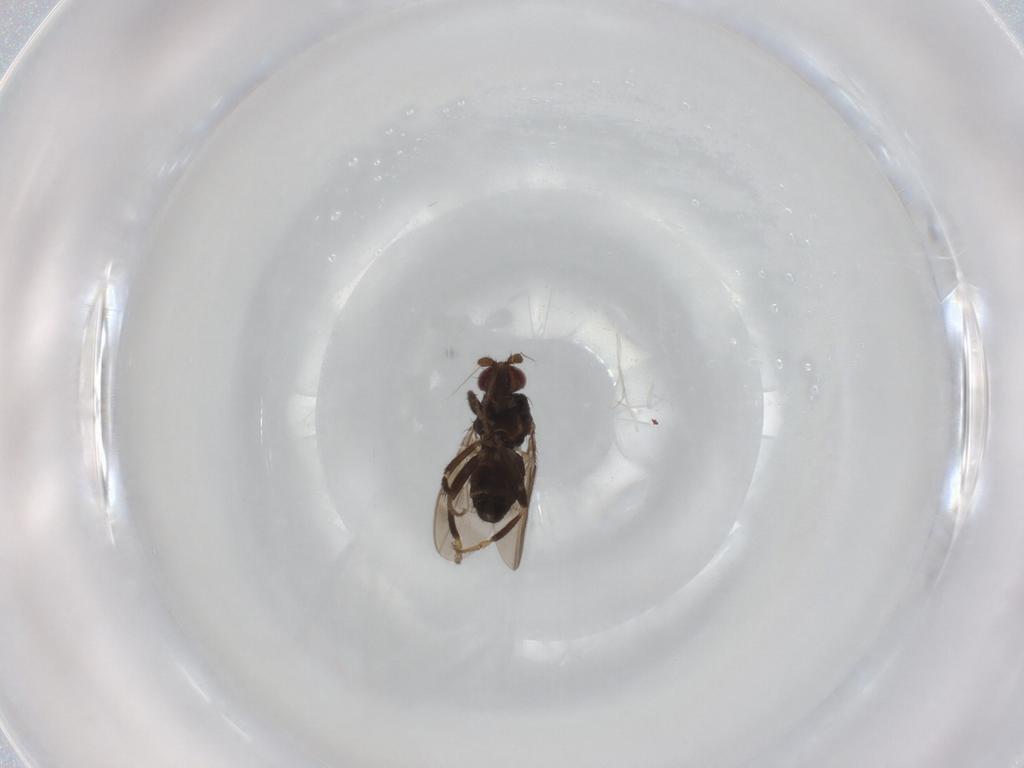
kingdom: Animalia
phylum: Arthropoda
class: Insecta
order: Diptera
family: Sphaeroceridae
